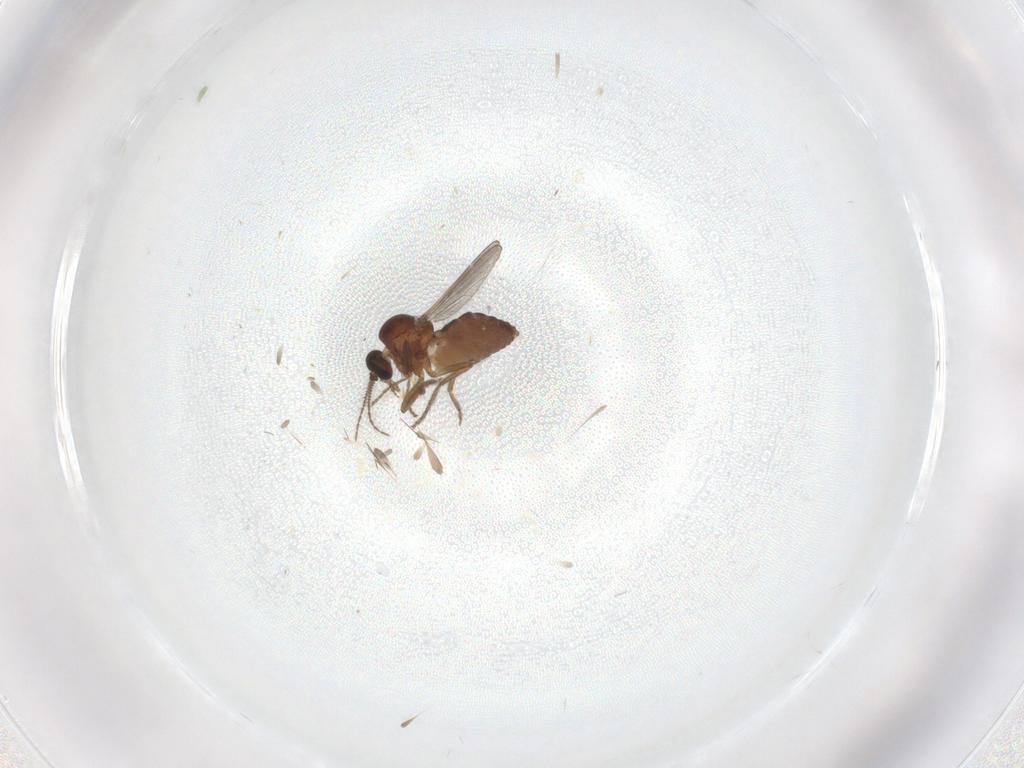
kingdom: Animalia
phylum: Arthropoda
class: Insecta
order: Diptera
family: Ceratopogonidae
